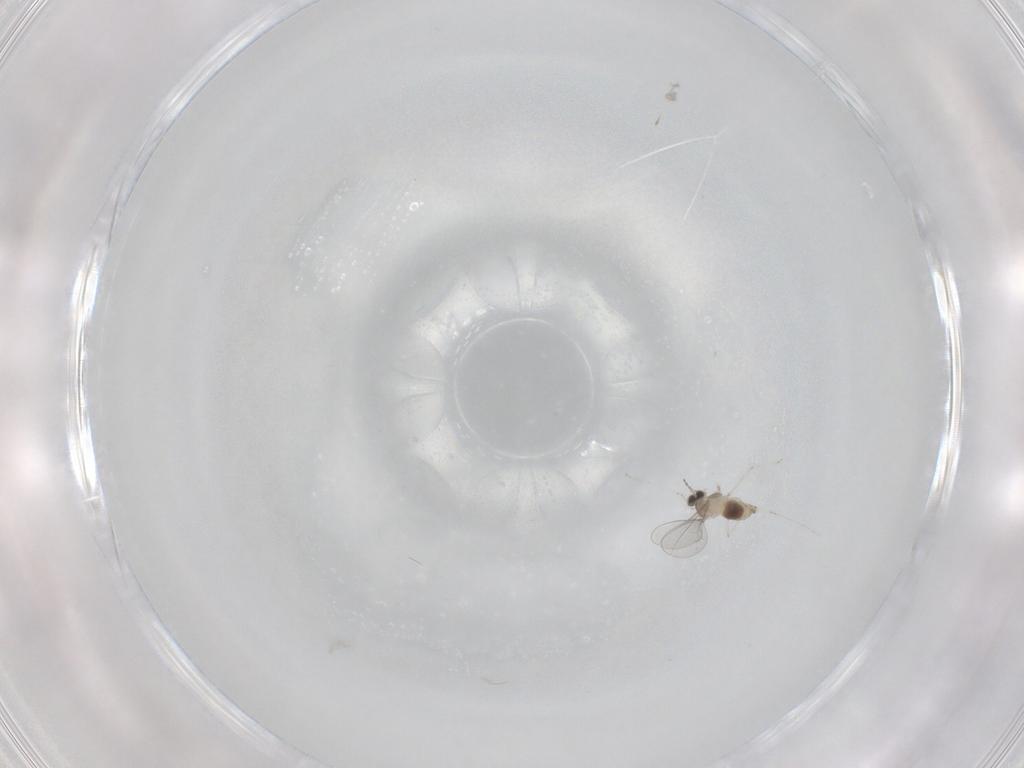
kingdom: Animalia
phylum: Arthropoda
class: Insecta
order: Diptera
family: Cecidomyiidae
